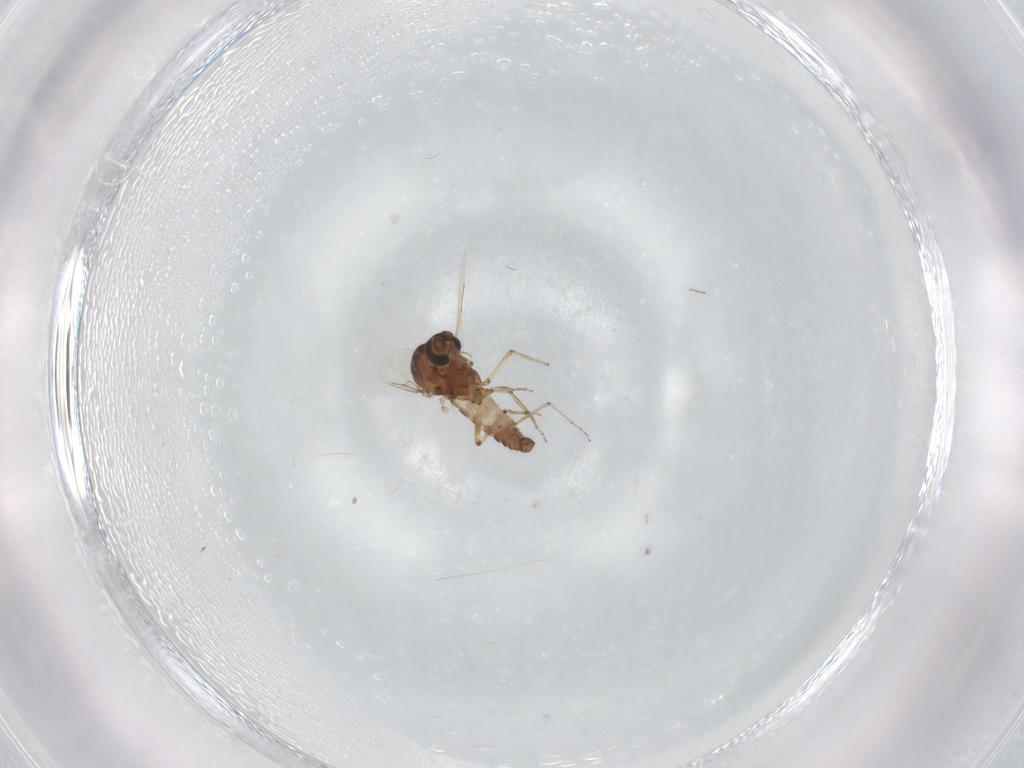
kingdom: Animalia
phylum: Arthropoda
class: Insecta
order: Diptera
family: Ceratopogonidae
